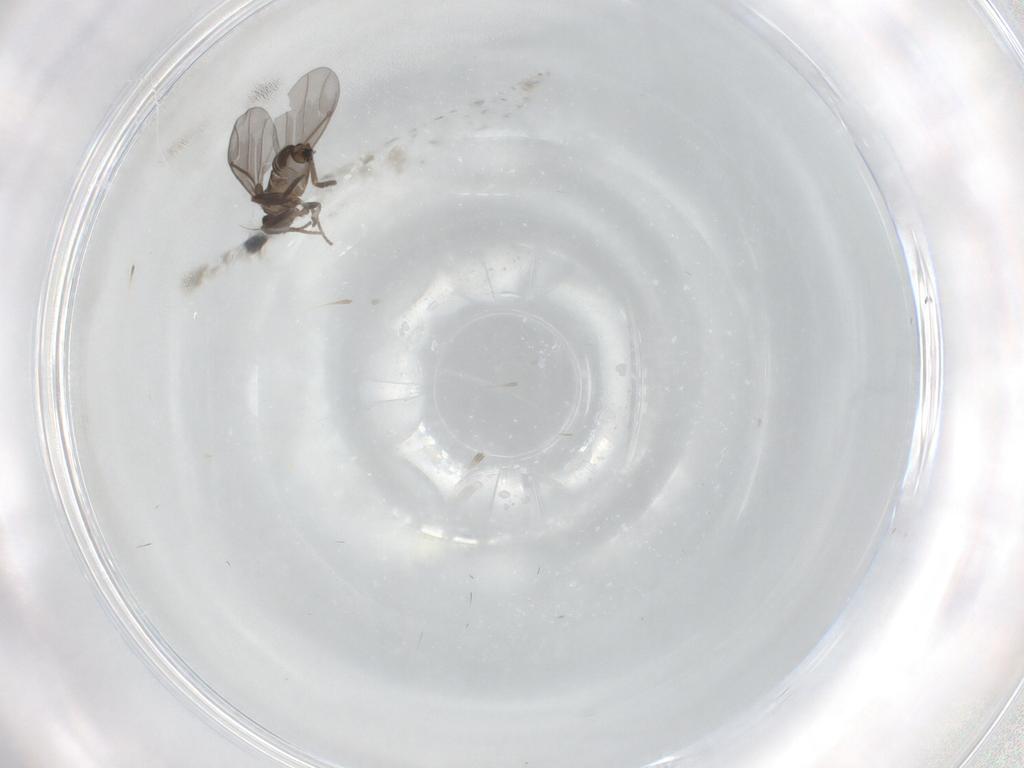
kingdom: Animalia
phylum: Arthropoda
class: Insecta
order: Diptera
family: Phoridae
